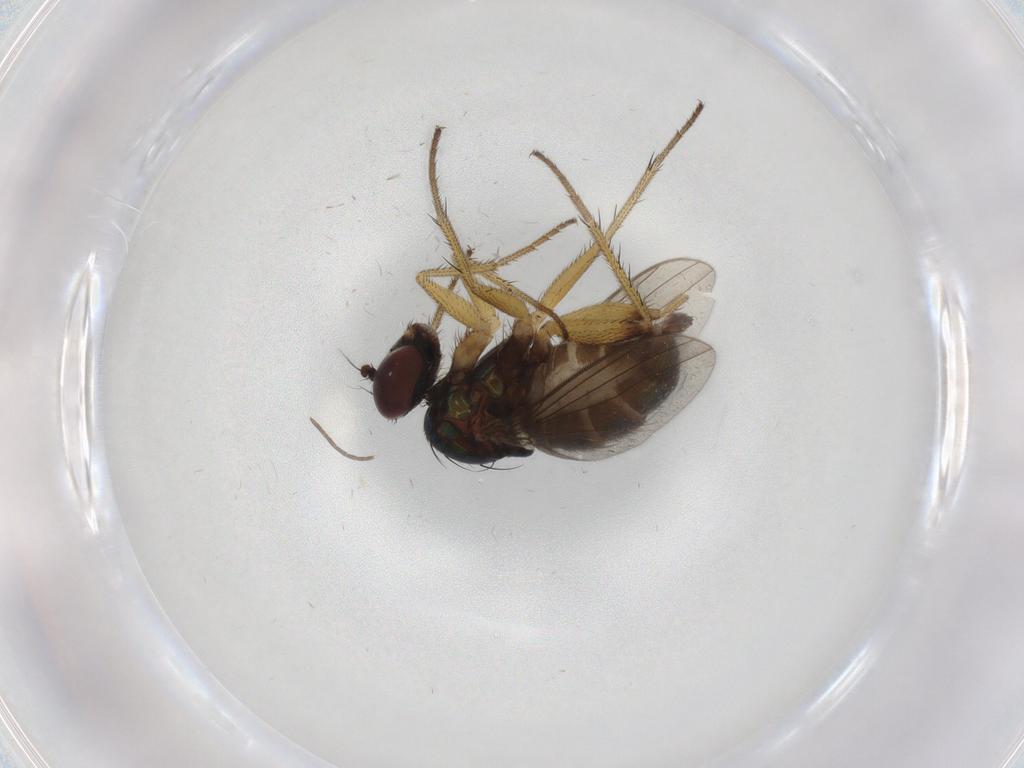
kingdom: Animalia
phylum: Arthropoda
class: Insecta
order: Diptera
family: Dolichopodidae
